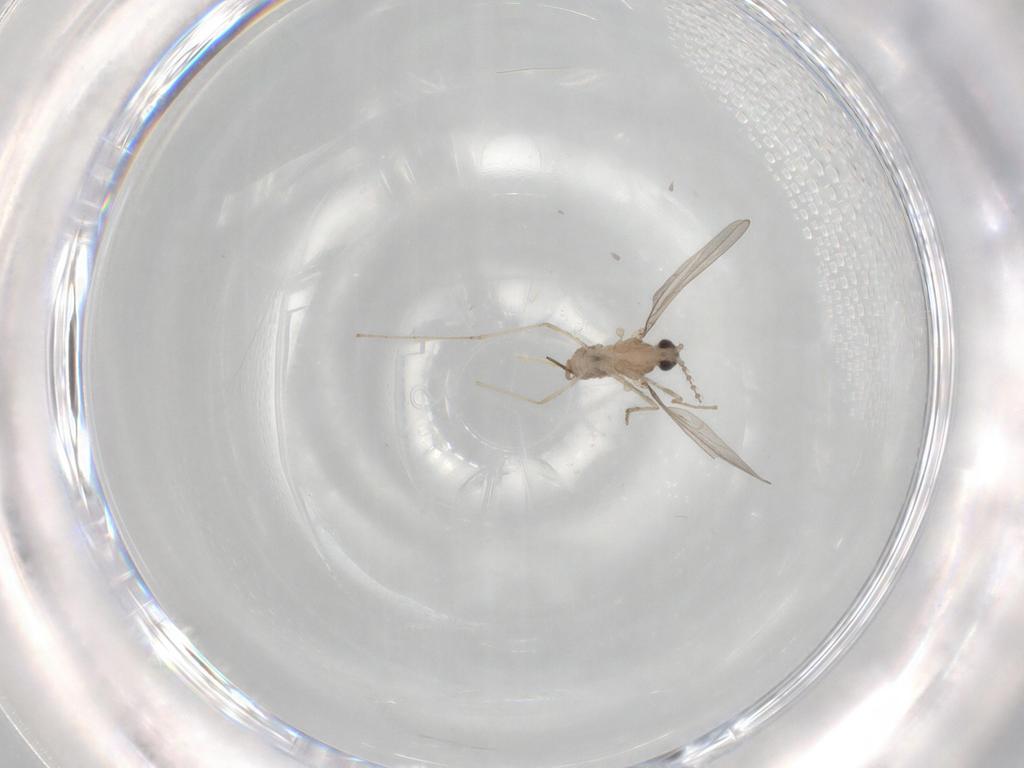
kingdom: Animalia
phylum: Arthropoda
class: Insecta
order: Diptera
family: Cecidomyiidae
